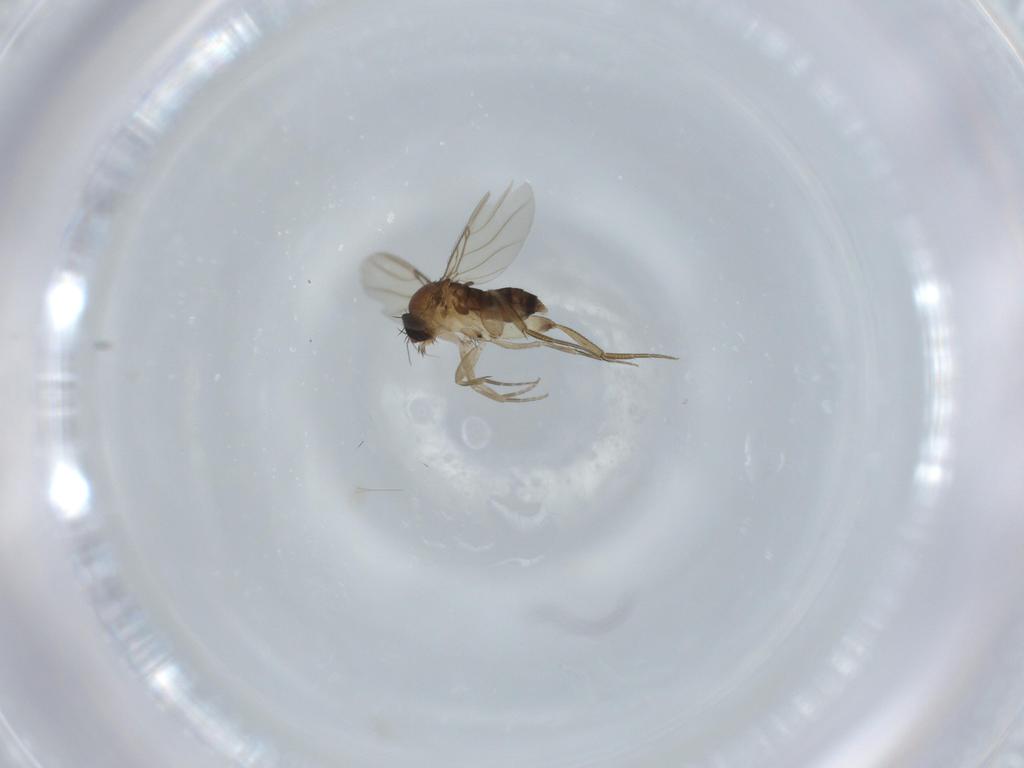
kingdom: Animalia
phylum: Arthropoda
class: Insecta
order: Diptera
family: Phoridae
